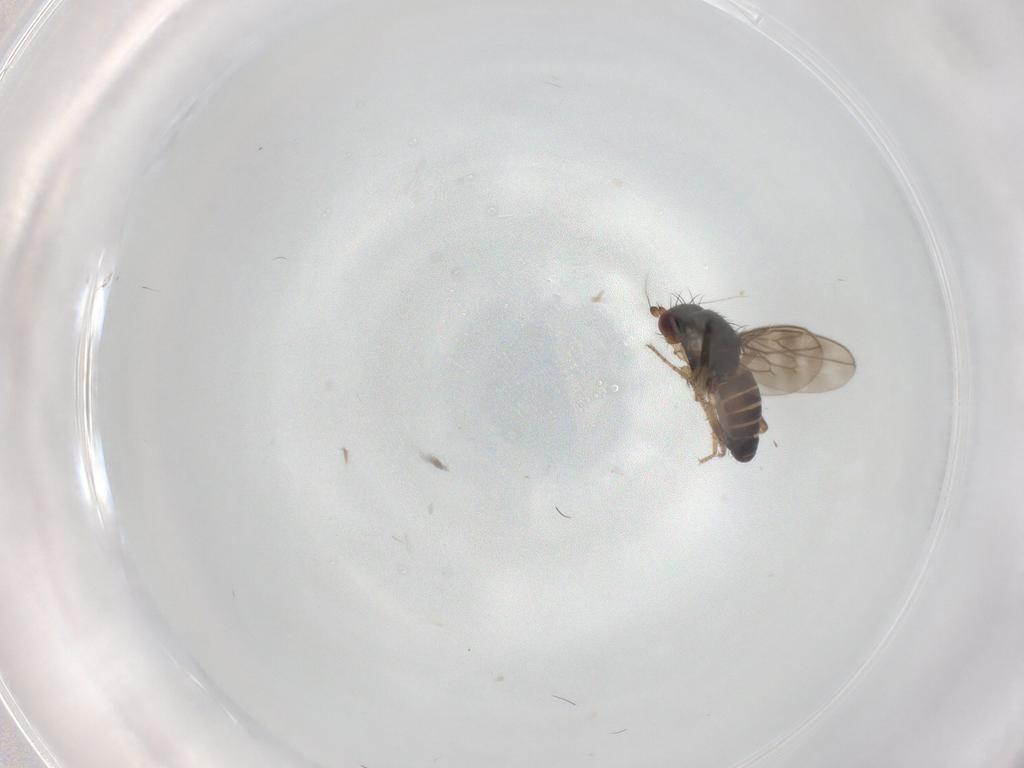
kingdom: Animalia
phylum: Arthropoda
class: Insecta
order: Diptera
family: Sphaeroceridae
